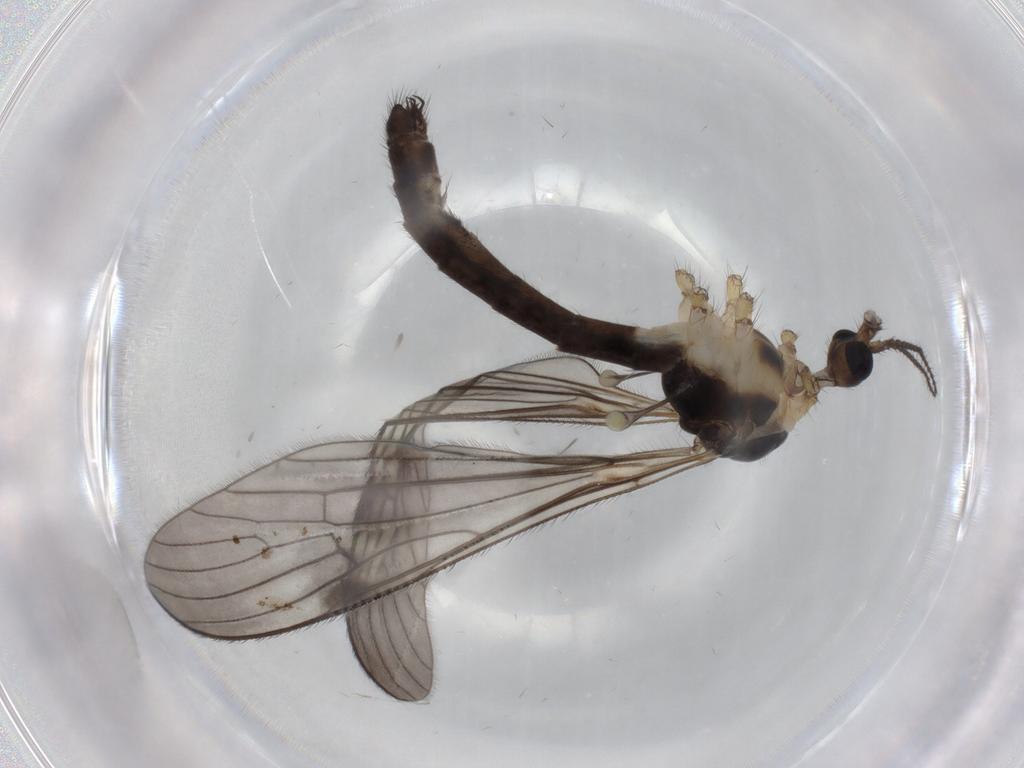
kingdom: Animalia
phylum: Arthropoda
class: Insecta
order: Diptera
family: Limoniidae
